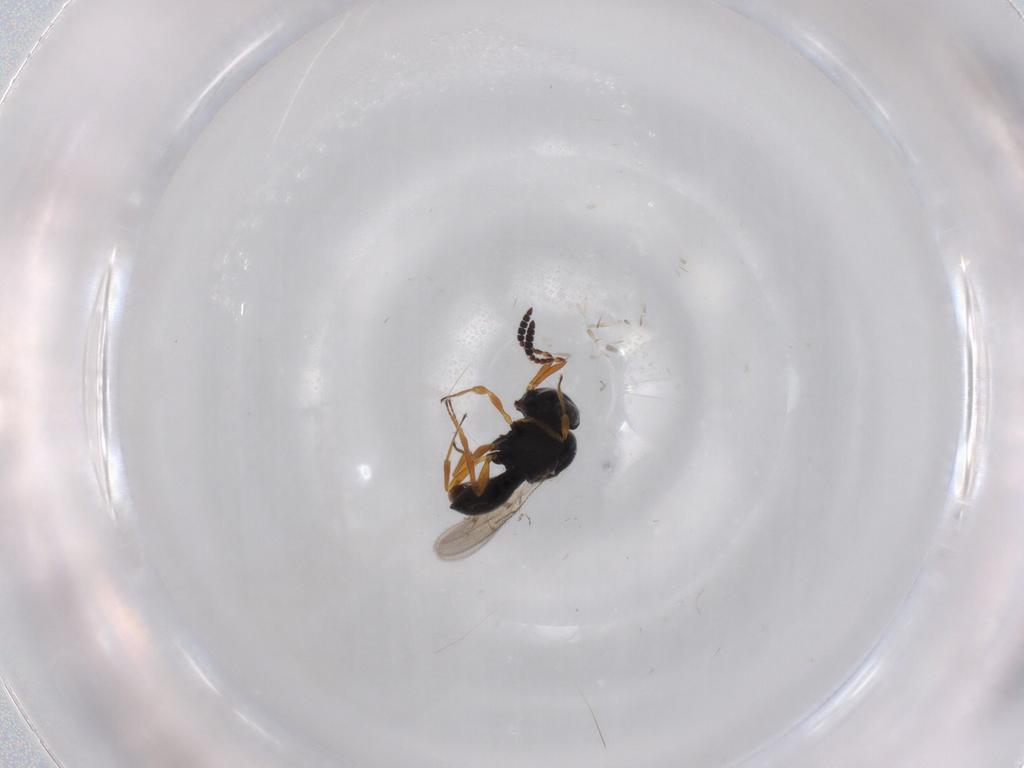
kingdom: Animalia
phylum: Arthropoda
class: Insecta
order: Hymenoptera
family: Scelionidae
